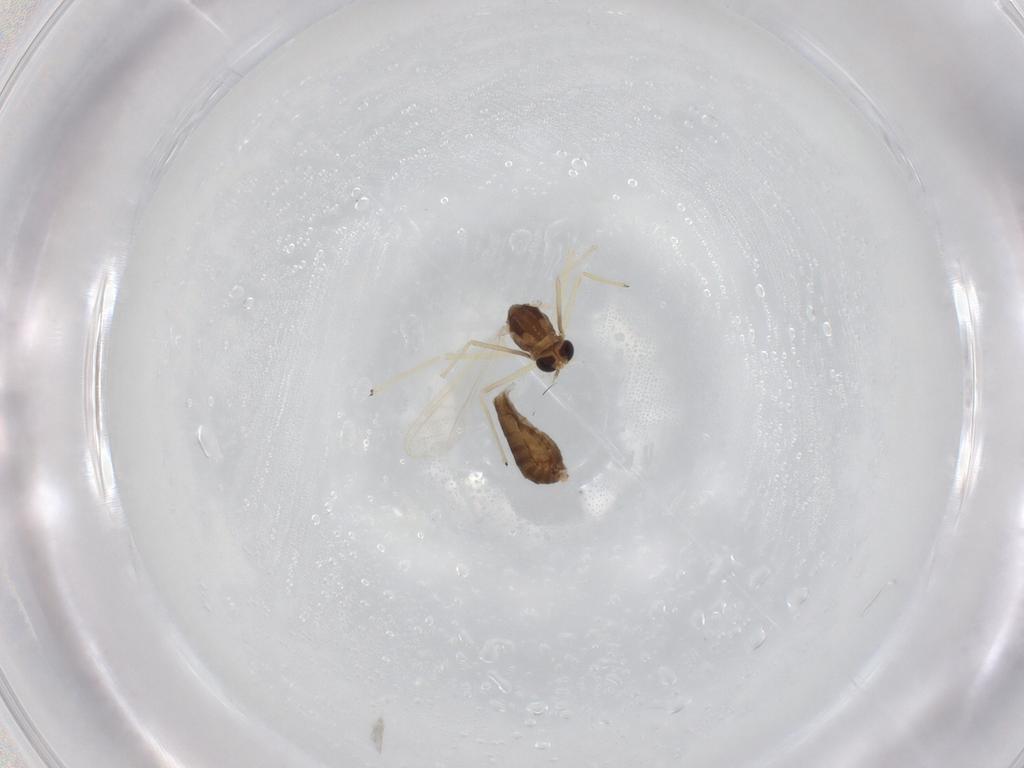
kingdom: Animalia
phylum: Arthropoda
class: Insecta
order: Diptera
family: Chironomidae
